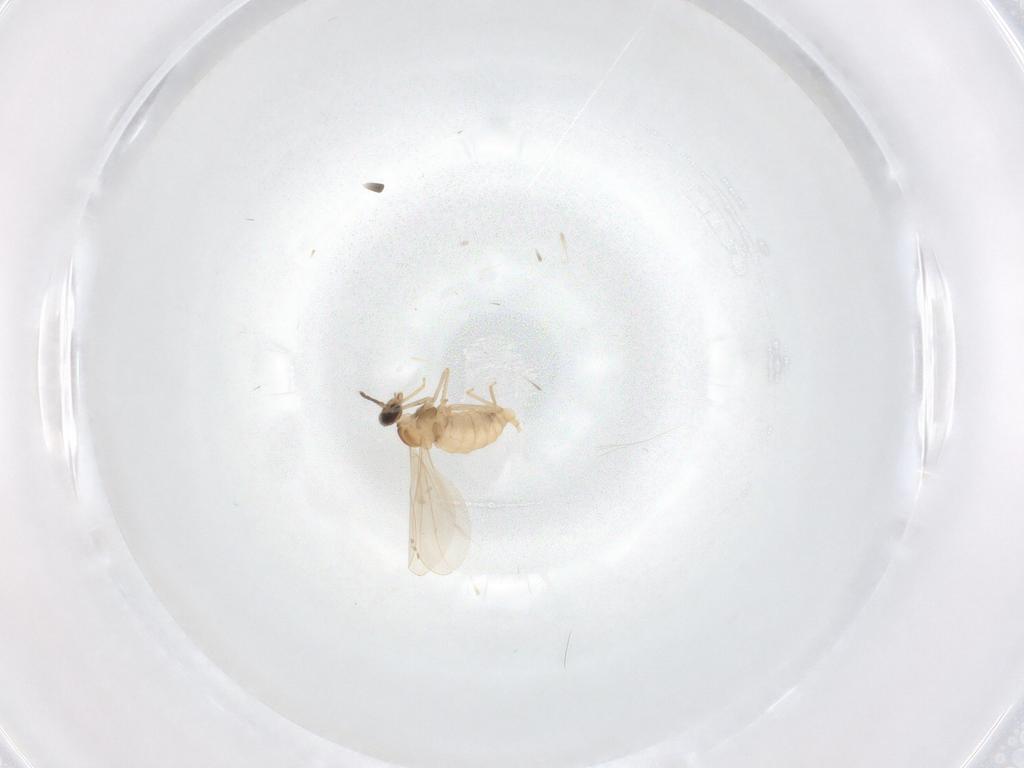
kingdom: Animalia
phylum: Arthropoda
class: Insecta
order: Diptera
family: Cecidomyiidae
